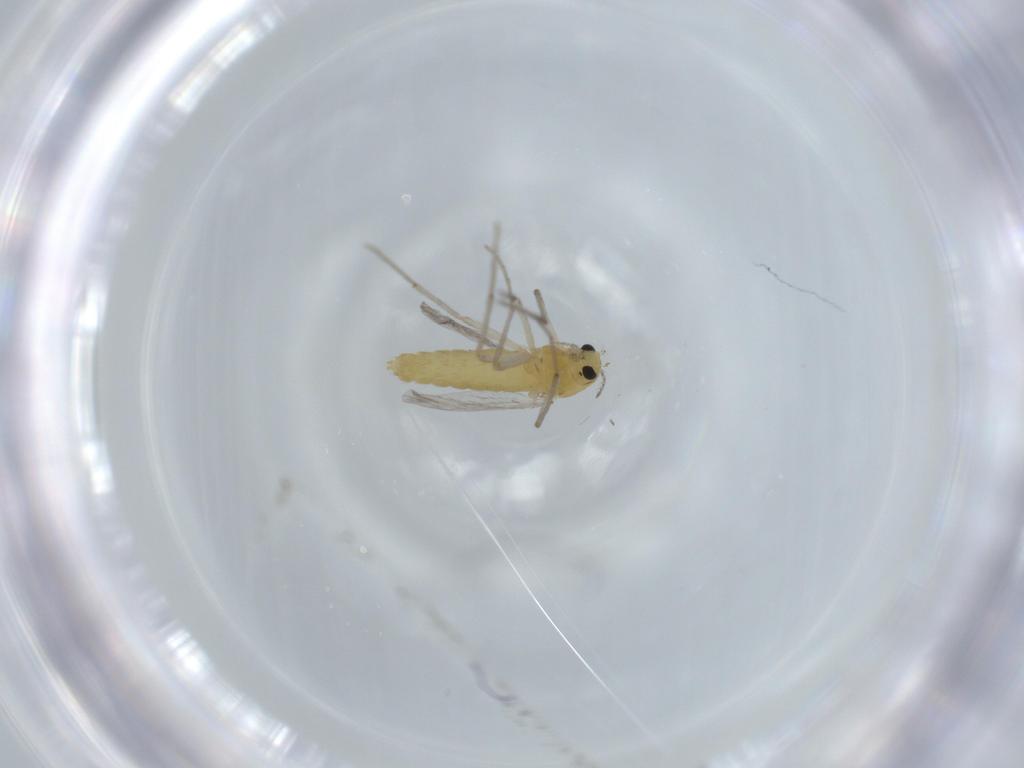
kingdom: Animalia
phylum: Arthropoda
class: Insecta
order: Diptera
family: Chironomidae
